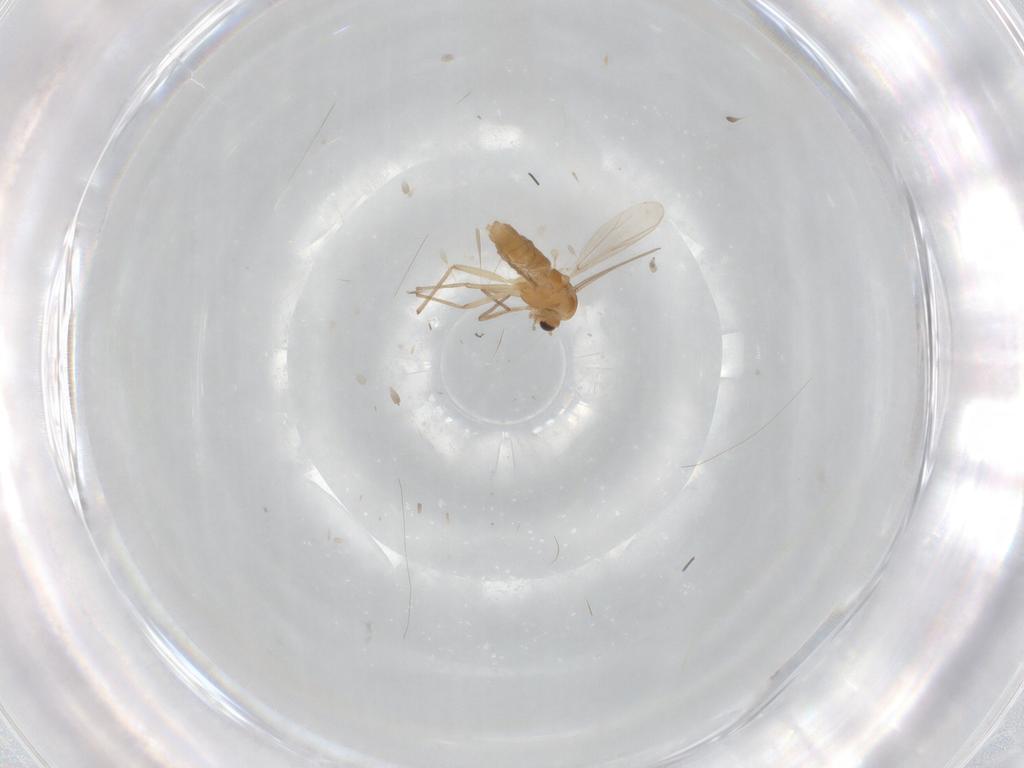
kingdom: Animalia
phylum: Arthropoda
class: Insecta
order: Diptera
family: Chironomidae
